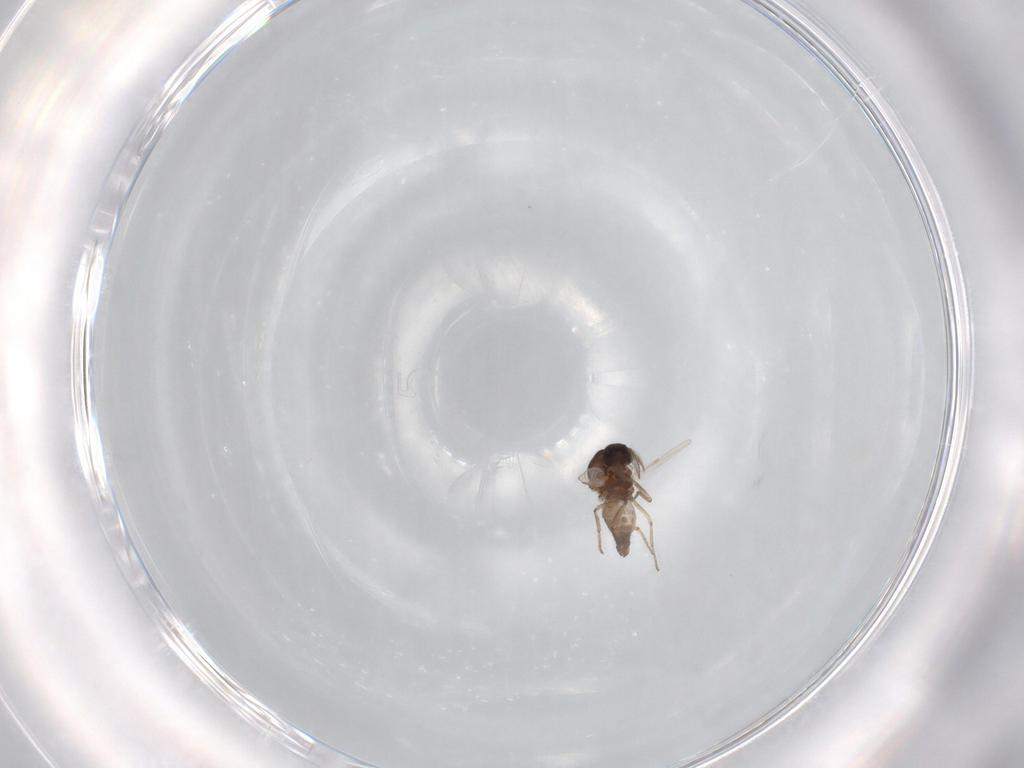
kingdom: Animalia
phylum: Arthropoda
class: Insecta
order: Diptera
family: Ceratopogonidae
